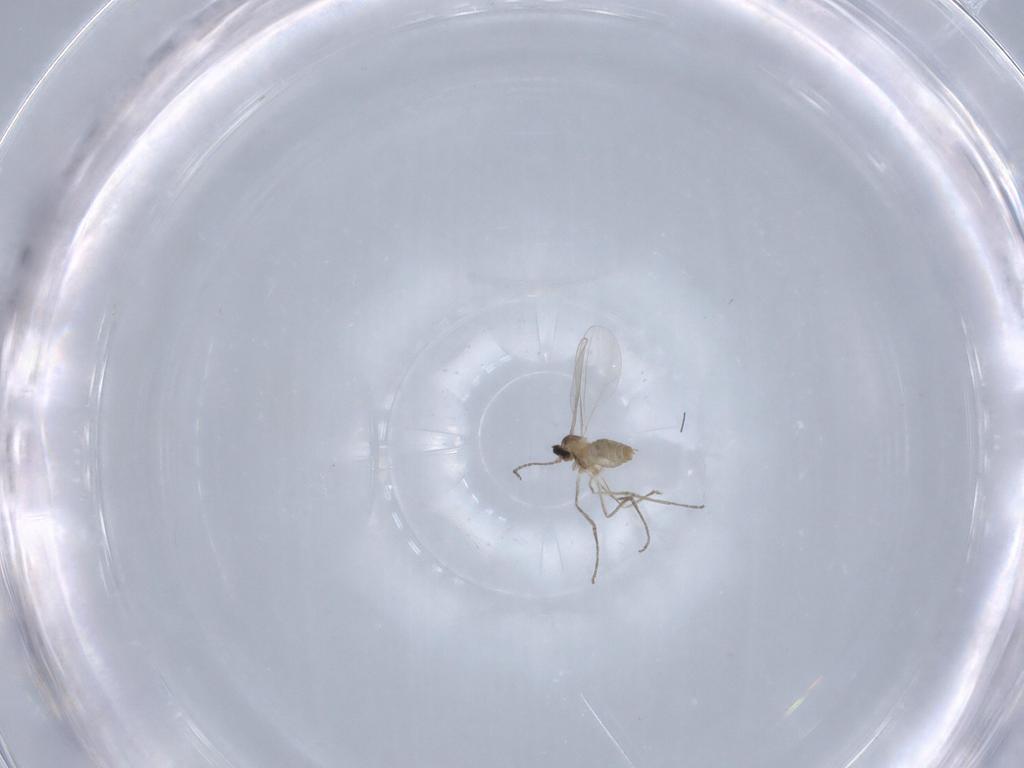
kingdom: Animalia
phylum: Arthropoda
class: Insecta
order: Diptera
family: Cecidomyiidae
